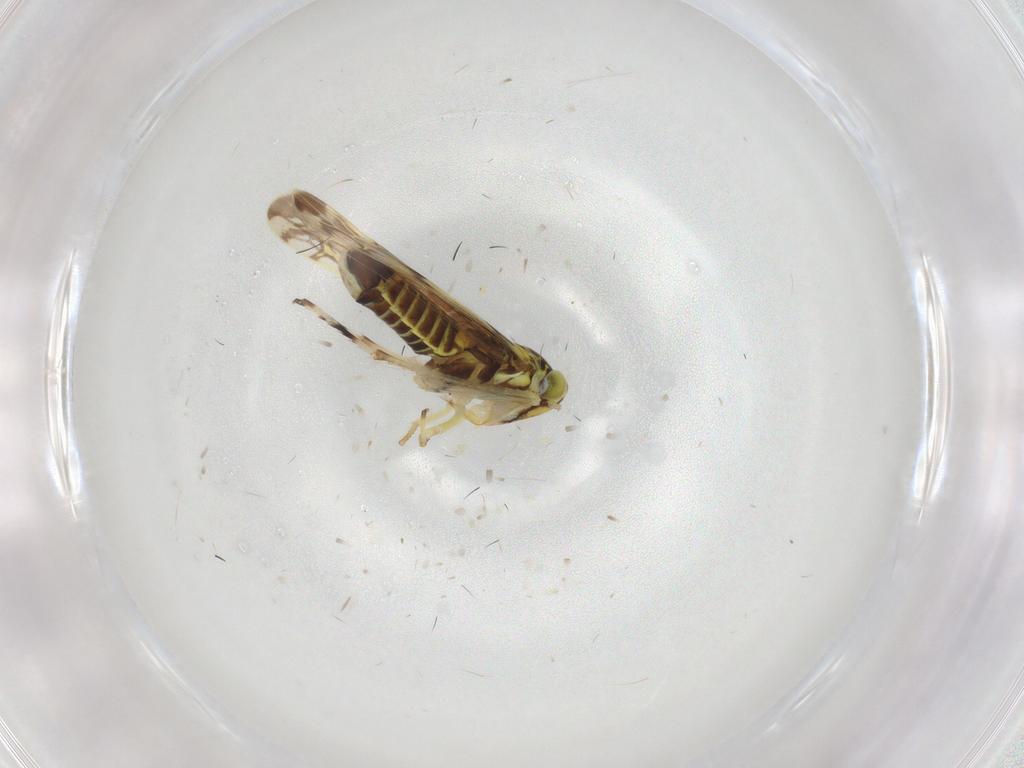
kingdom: Animalia
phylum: Arthropoda
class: Insecta
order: Hemiptera
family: Cicadellidae
